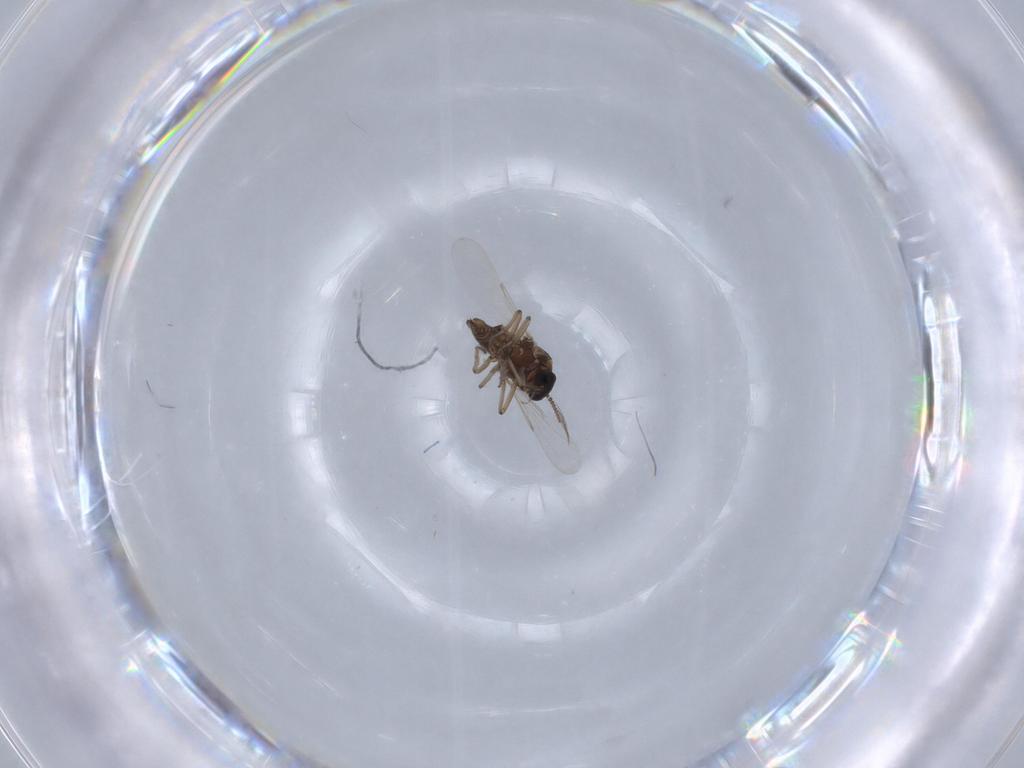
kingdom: Animalia
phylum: Arthropoda
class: Insecta
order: Diptera
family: Ceratopogonidae
